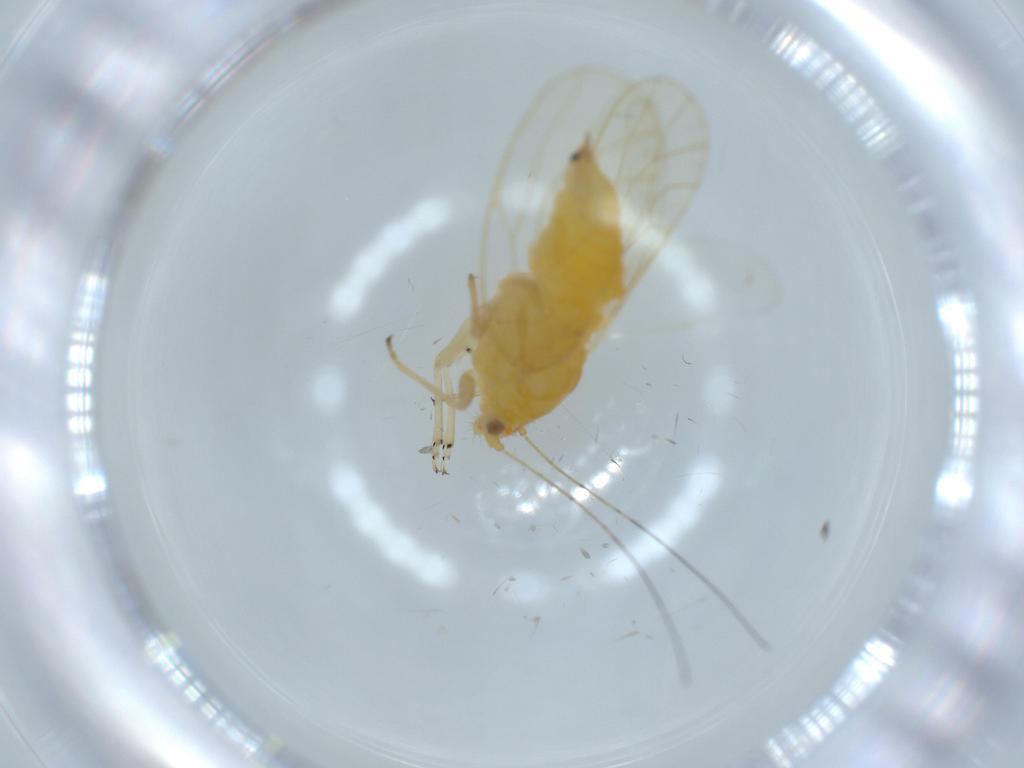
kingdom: Animalia
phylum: Arthropoda
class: Insecta
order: Hemiptera
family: Psyllidae
